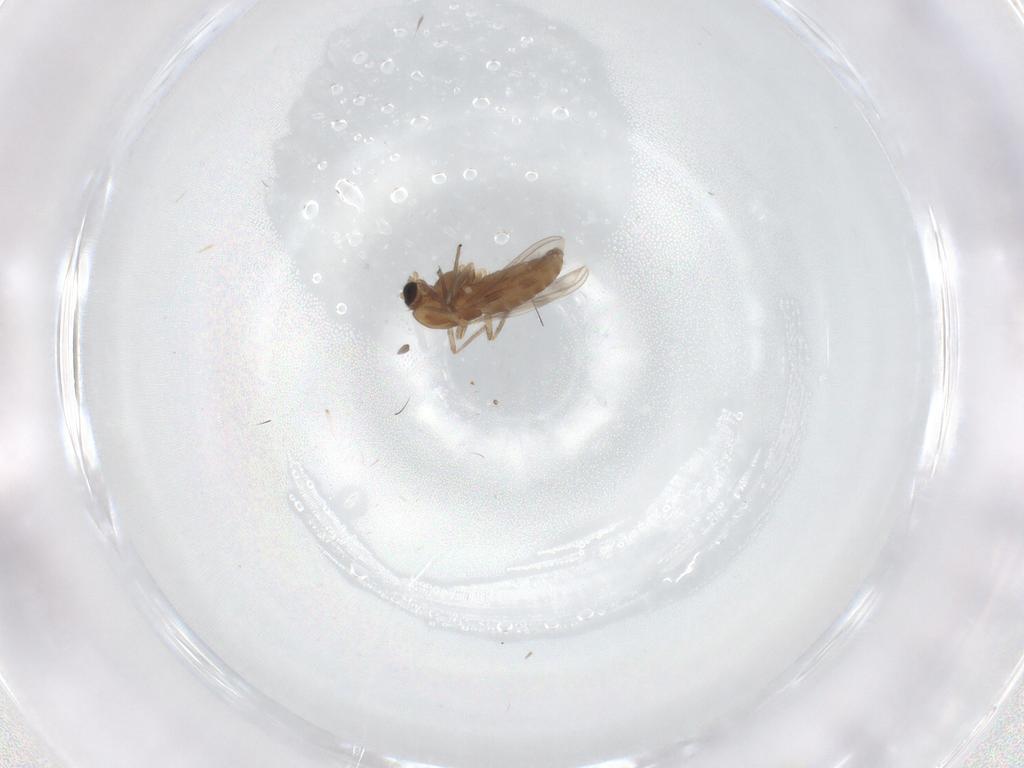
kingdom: Animalia
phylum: Arthropoda
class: Insecta
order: Diptera
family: Cecidomyiidae
